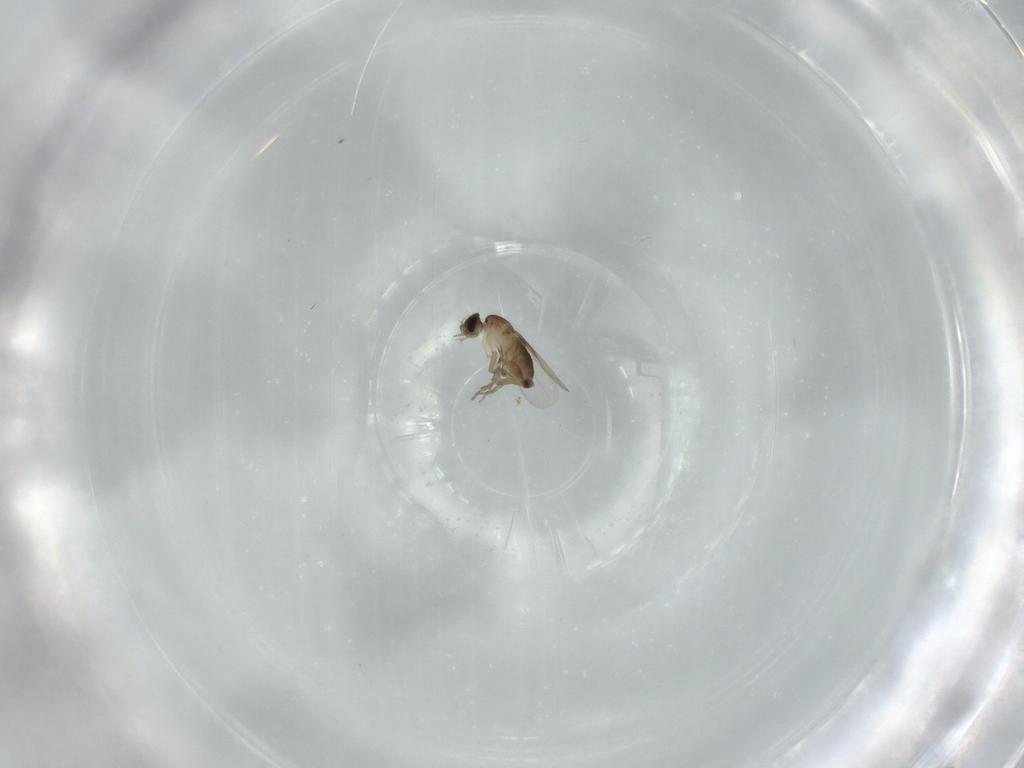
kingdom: Animalia
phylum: Arthropoda
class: Insecta
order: Diptera
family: Phoridae
